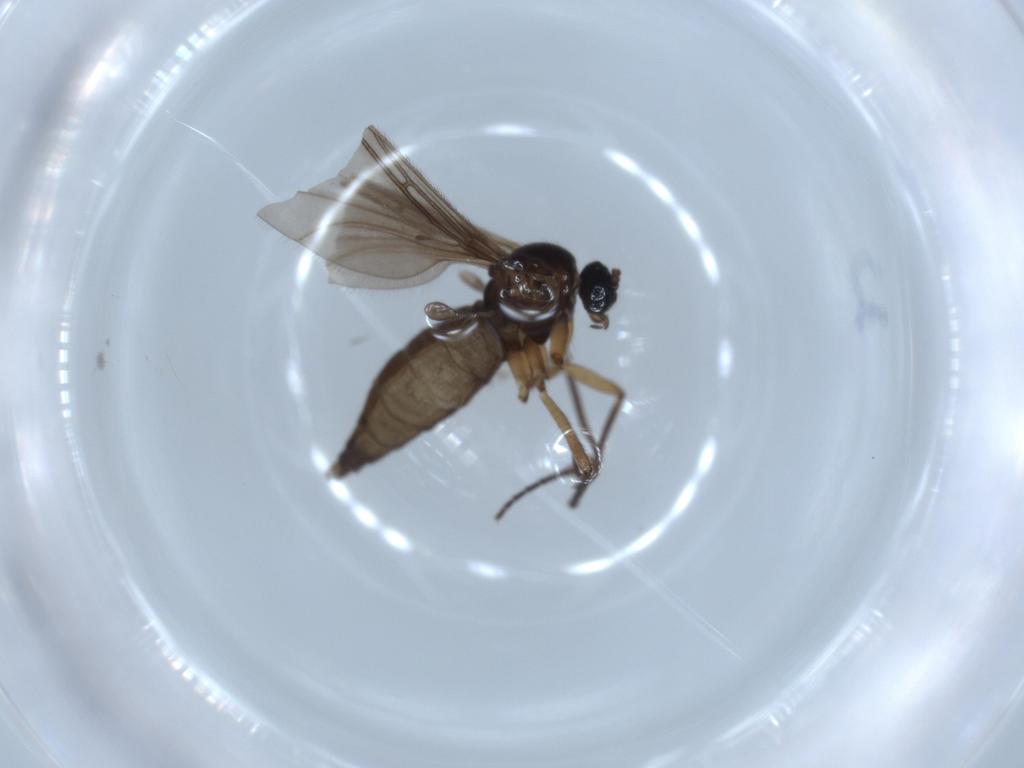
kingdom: Animalia
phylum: Arthropoda
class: Insecta
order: Diptera
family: Sciaridae
